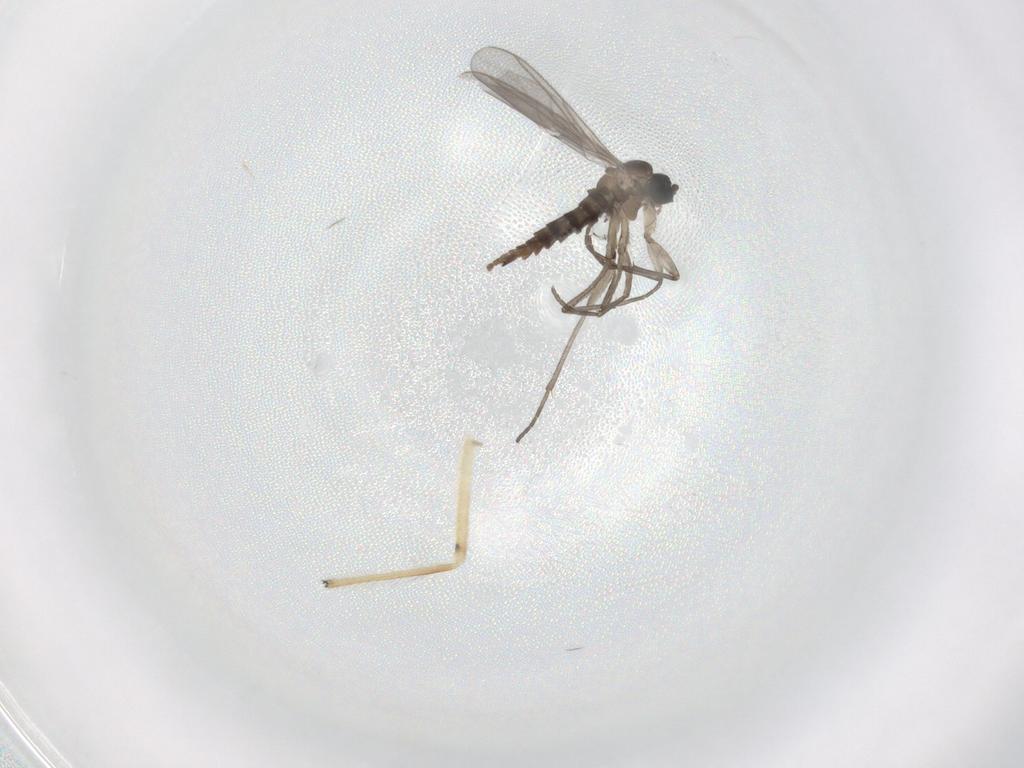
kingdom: Animalia
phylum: Arthropoda
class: Insecta
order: Diptera
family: Sciaridae
